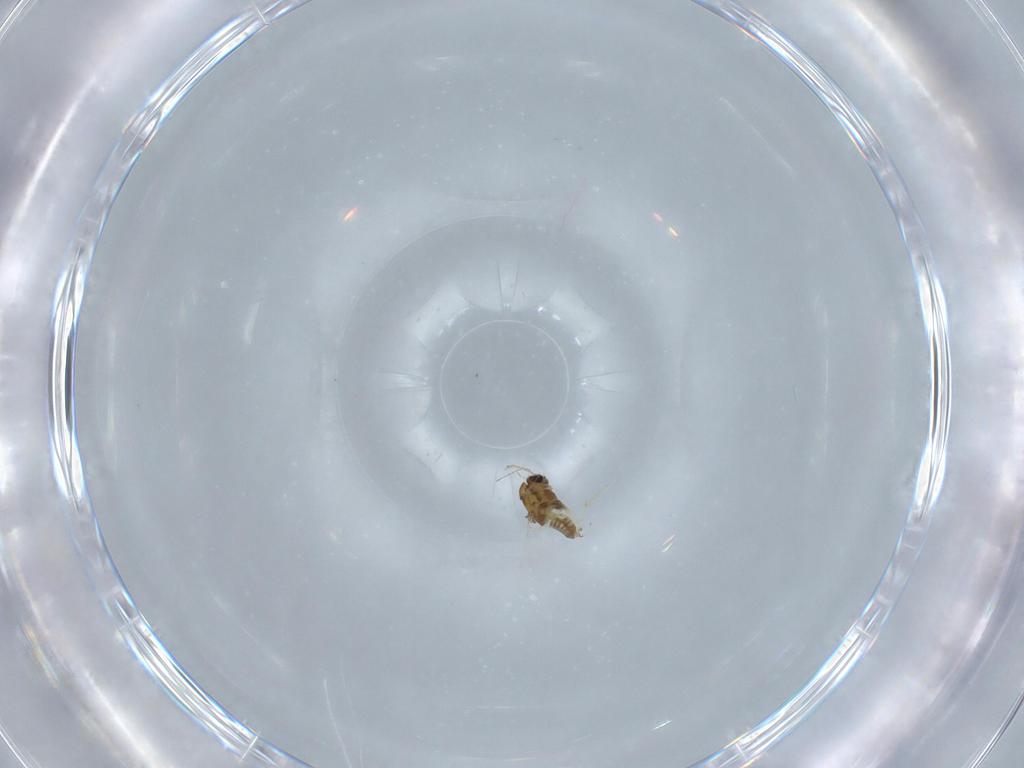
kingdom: Animalia
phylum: Arthropoda
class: Insecta
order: Diptera
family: Chironomidae
